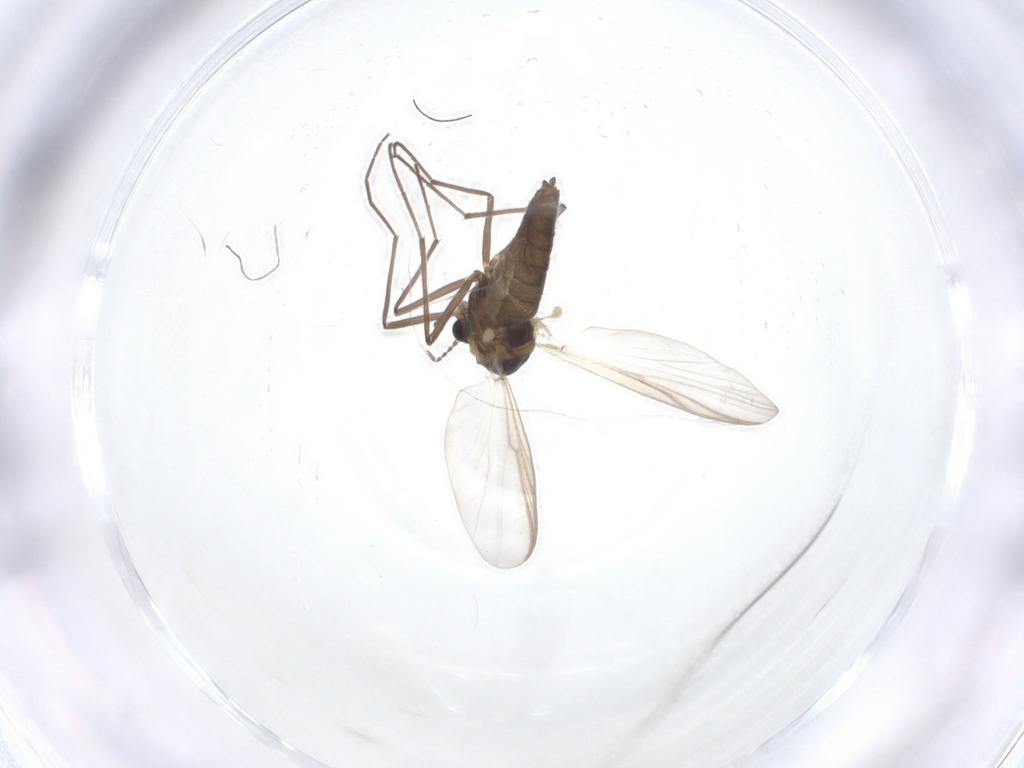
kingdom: Animalia
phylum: Arthropoda
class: Insecta
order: Diptera
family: Chironomidae
